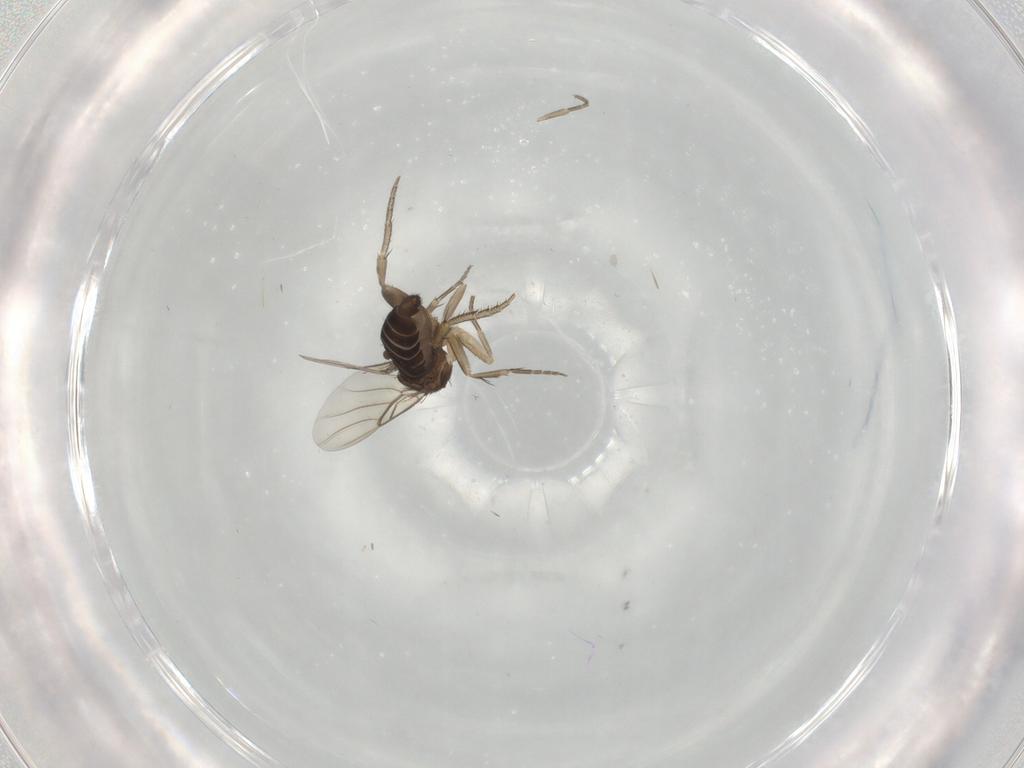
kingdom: Animalia
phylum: Arthropoda
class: Insecta
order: Diptera
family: Phoridae
